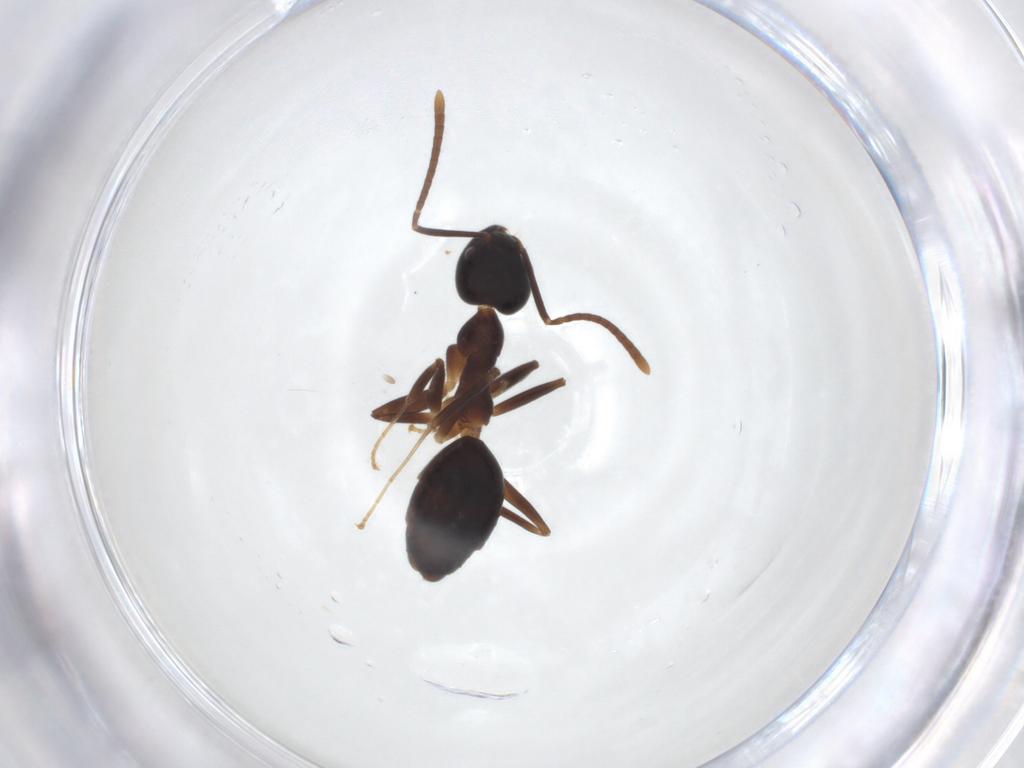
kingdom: Animalia
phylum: Arthropoda
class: Insecta
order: Hymenoptera
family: Formicidae
